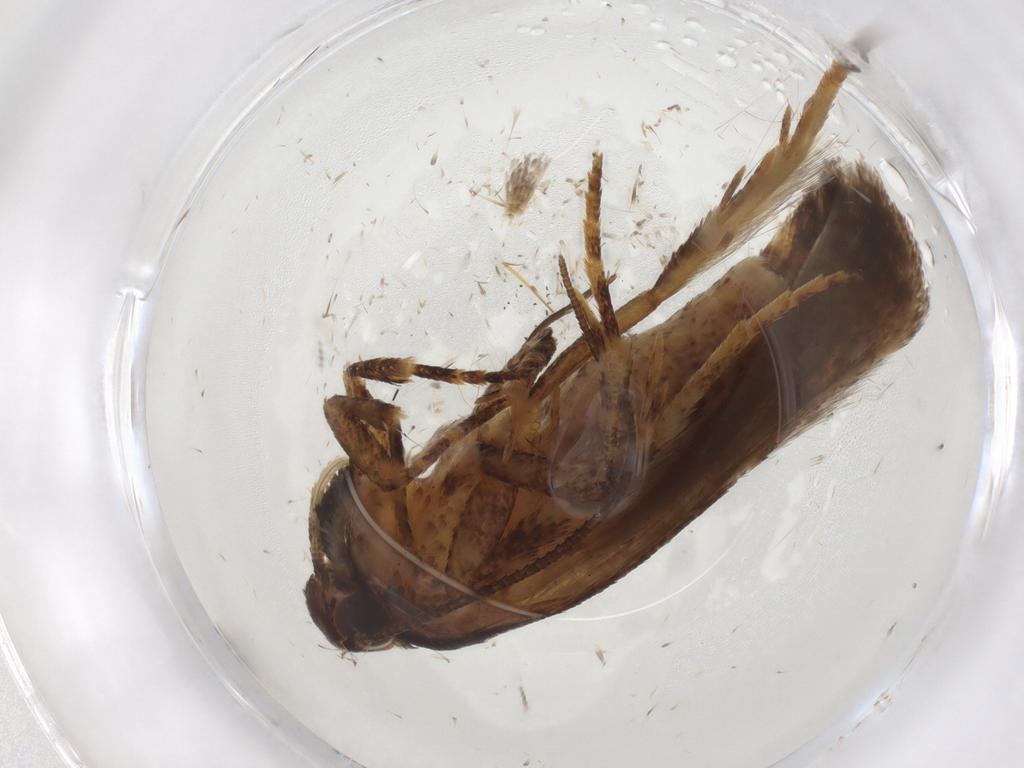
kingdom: Animalia
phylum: Arthropoda
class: Insecta
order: Lepidoptera
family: Gelechiidae
